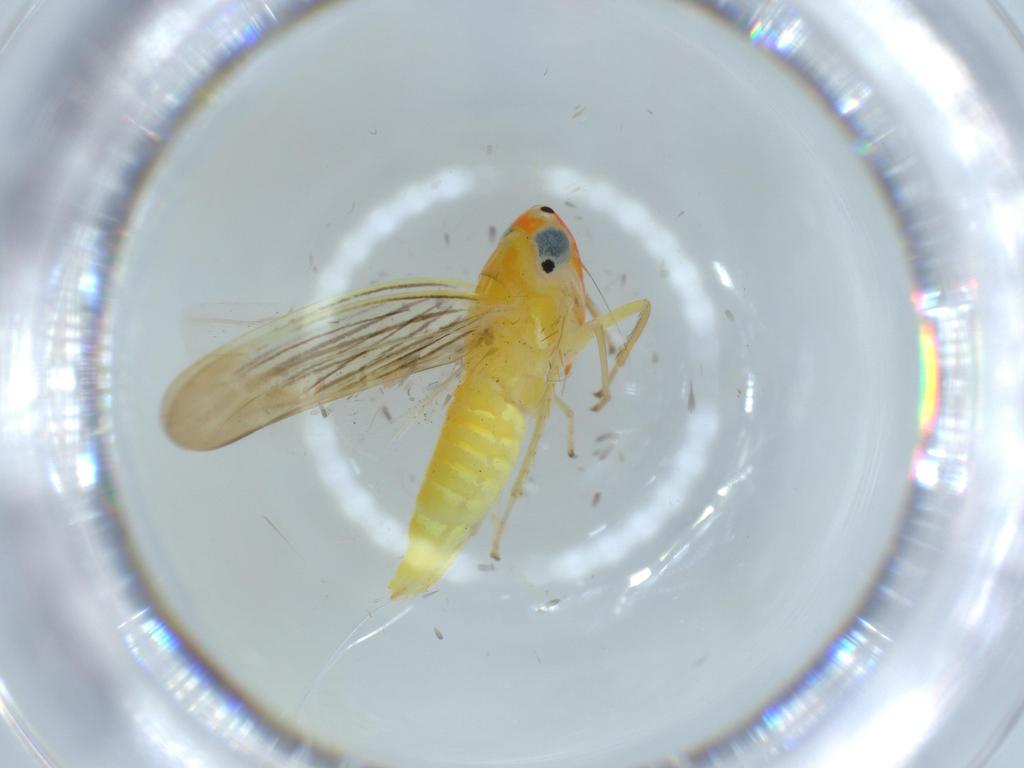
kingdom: Animalia
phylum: Arthropoda
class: Insecta
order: Hemiptera
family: Cicadellidae
